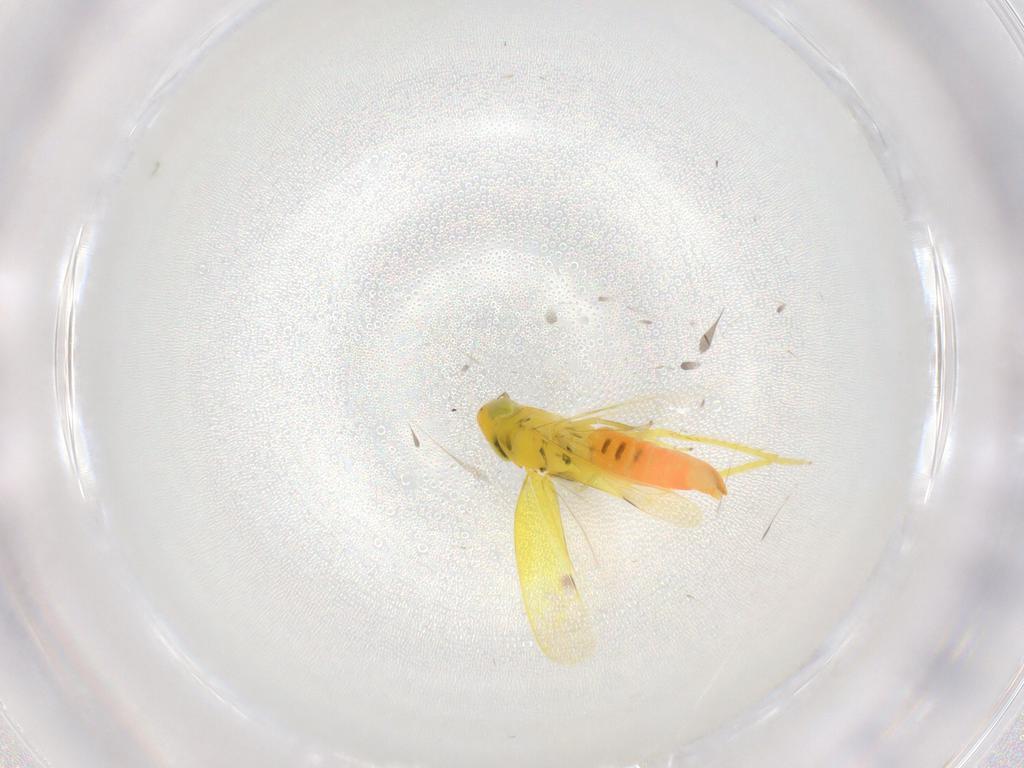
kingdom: Animalia
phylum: Arthropoda
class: Insecta
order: Hemiptera
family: Cicadellidae
